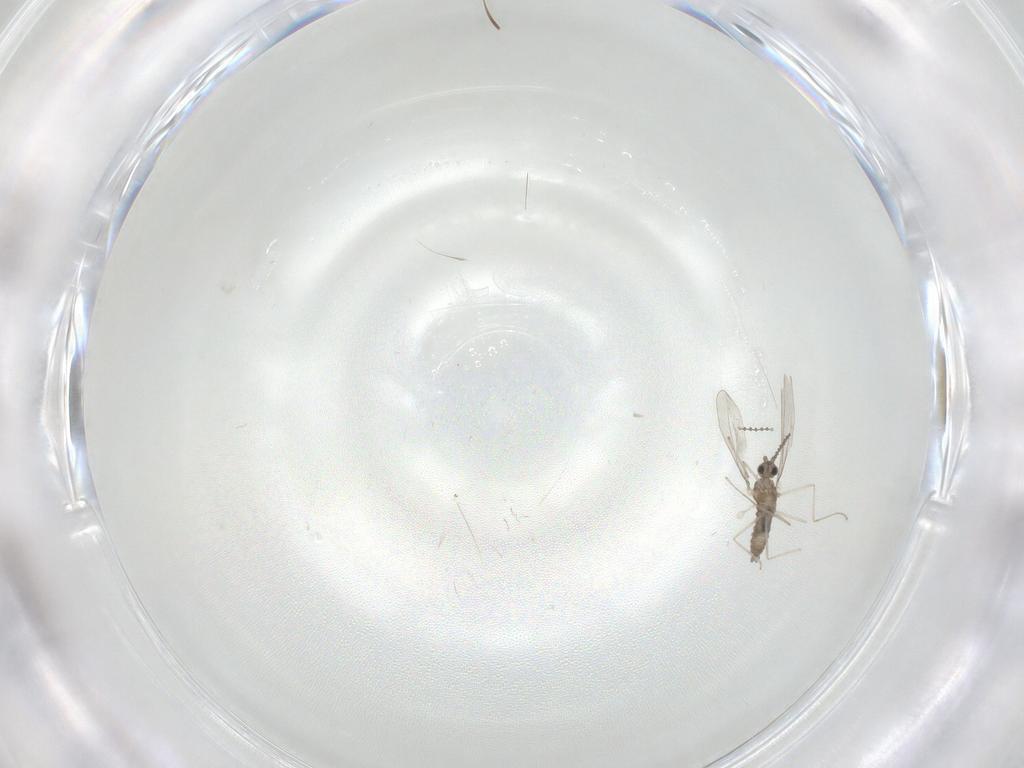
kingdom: Animalia
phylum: Arthropoda
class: Insecta
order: Diptera
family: Cecidomyiidae
